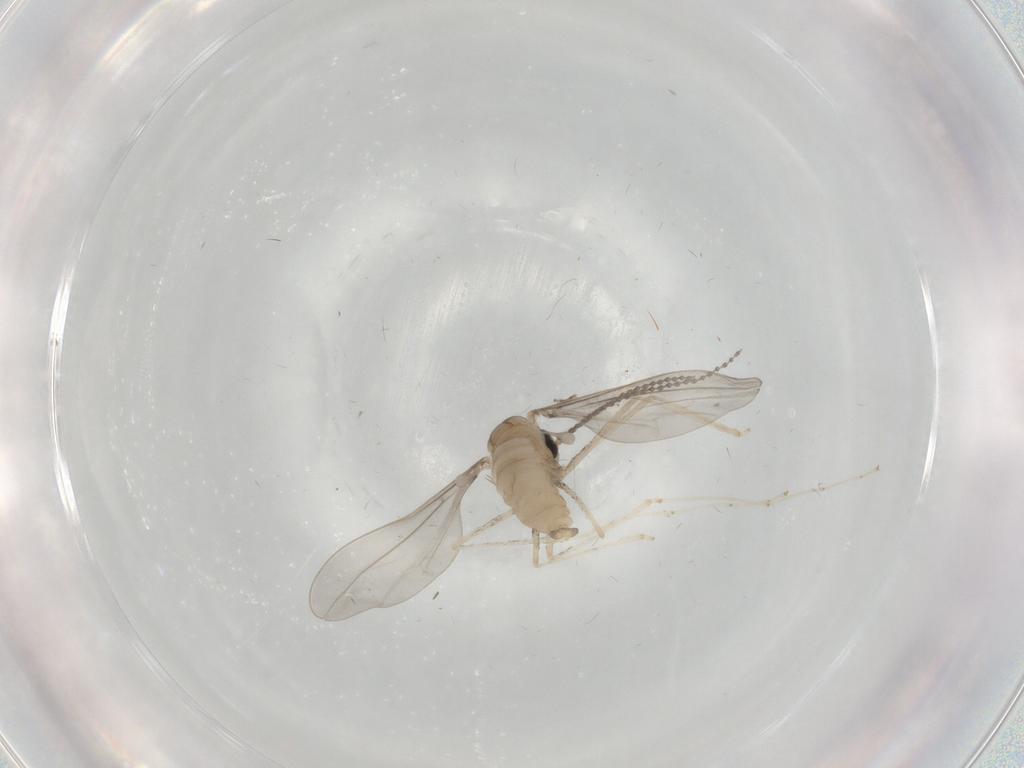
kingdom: Animalia
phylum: Arthropoda
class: Insecta
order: Diptera
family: Cecidomyiidae
